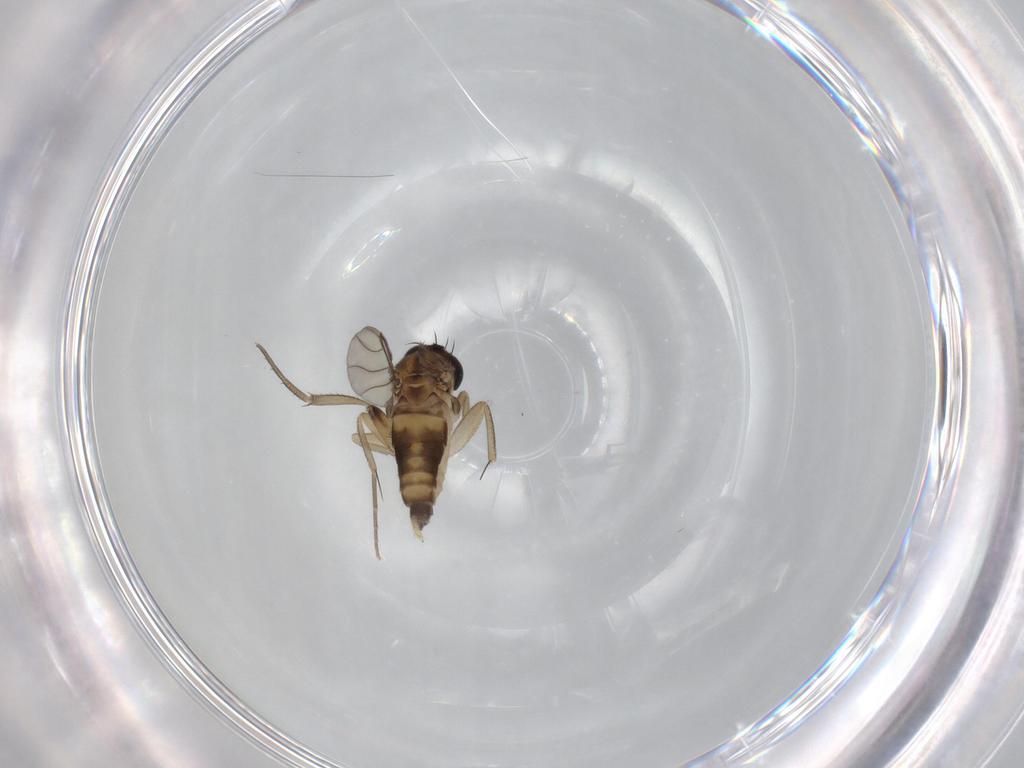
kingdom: Animalia
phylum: Arthropoda
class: Insecta
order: Diptera
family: Phoridae
